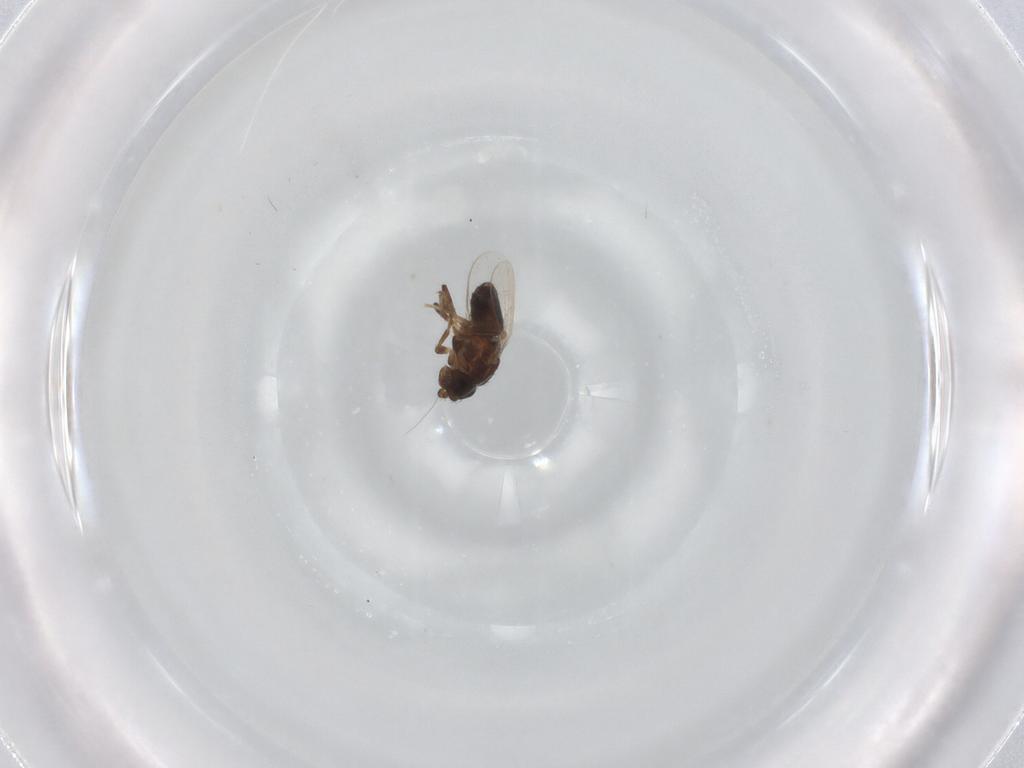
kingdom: Animalia
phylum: Arthropoda
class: Insecta
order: Diptera
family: Sphaeroceridae
